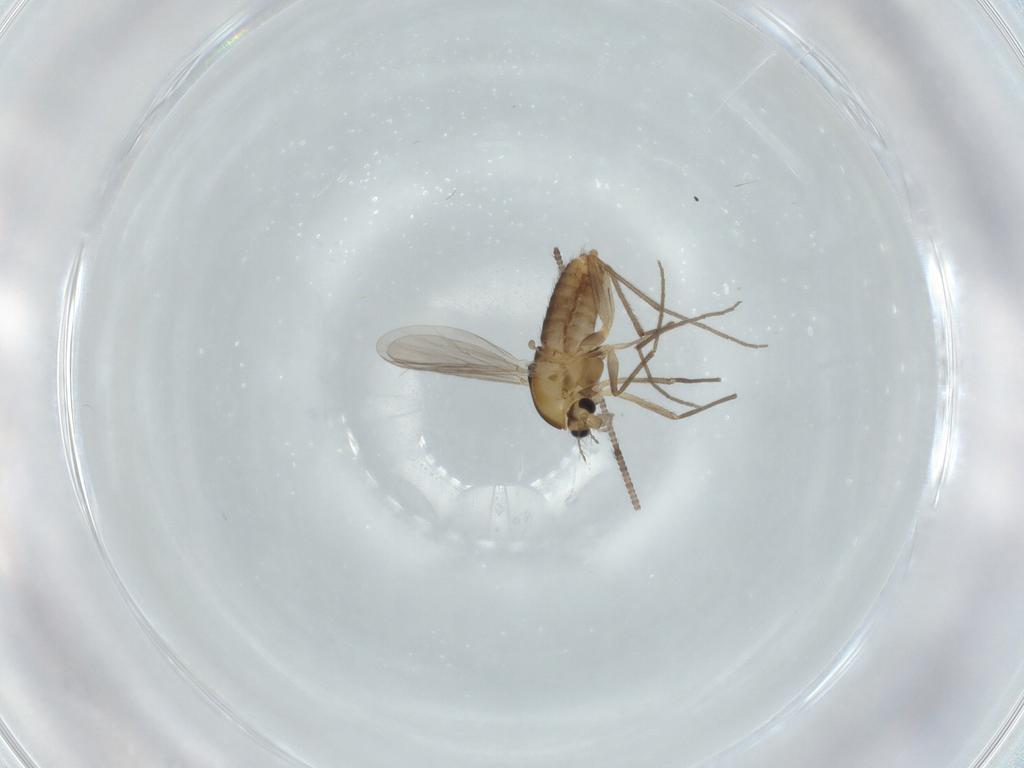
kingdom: Animalia
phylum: Arthropoda
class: Insecta
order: Diptera
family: Chironomidae
